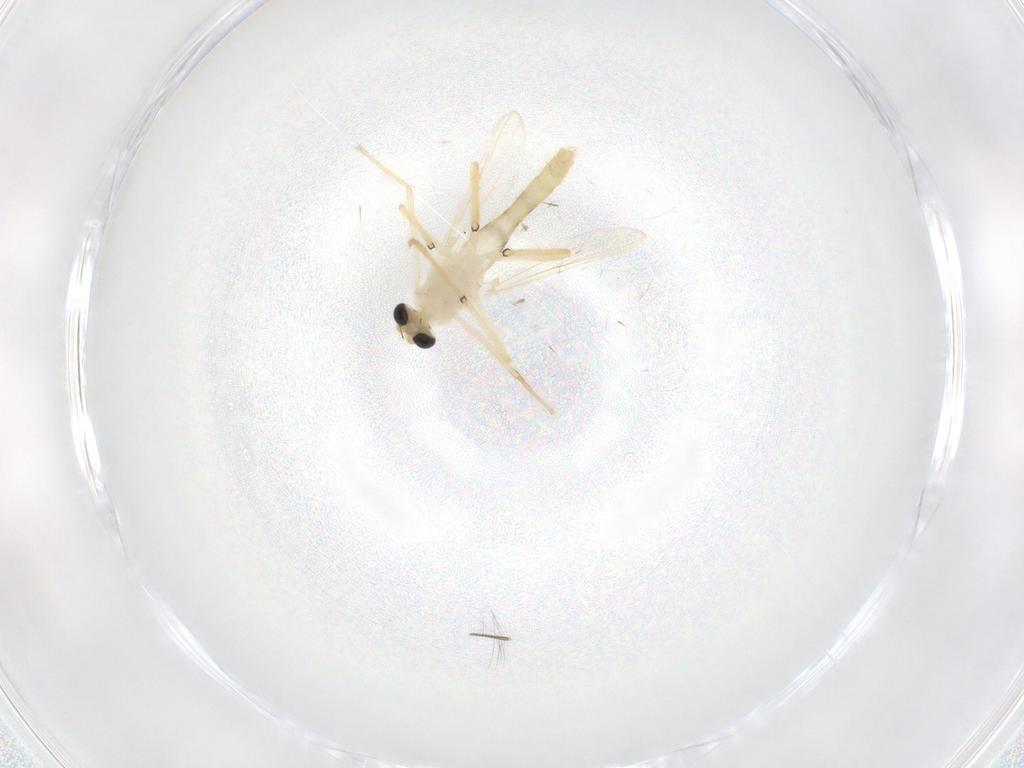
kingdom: Animalia
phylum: Arthropoda
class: Insecta
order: Diptera
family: Chironomidae
